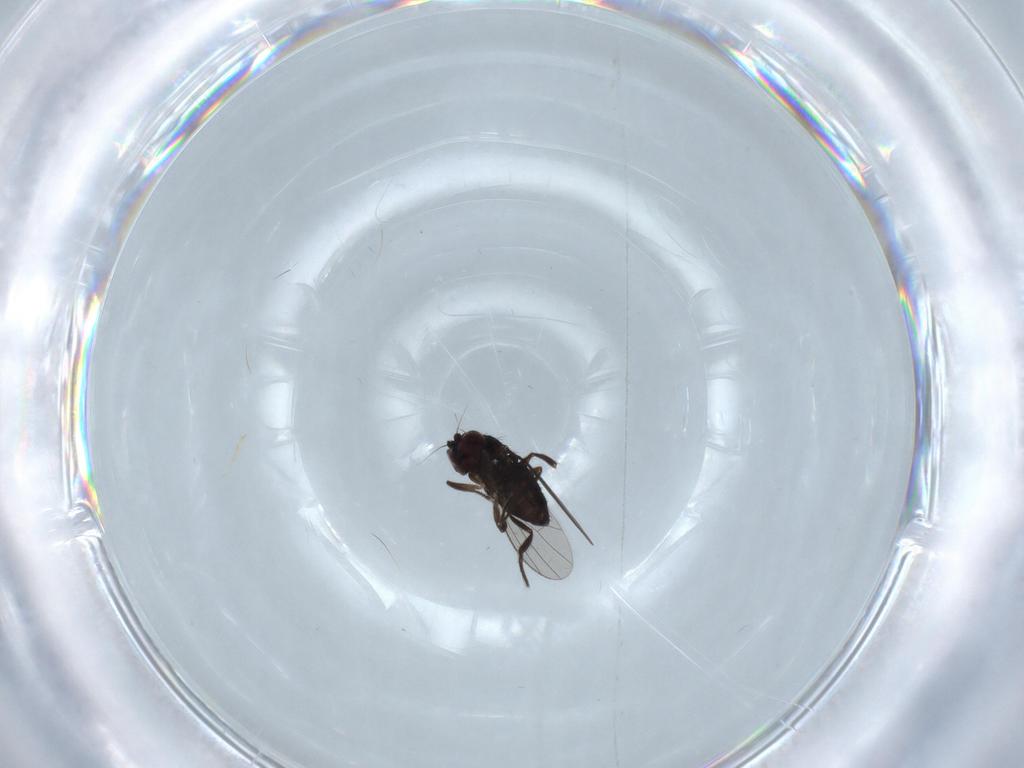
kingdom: Animalia
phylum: Arthropoda
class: Insecta
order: Diptera
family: Dolichopodidae
